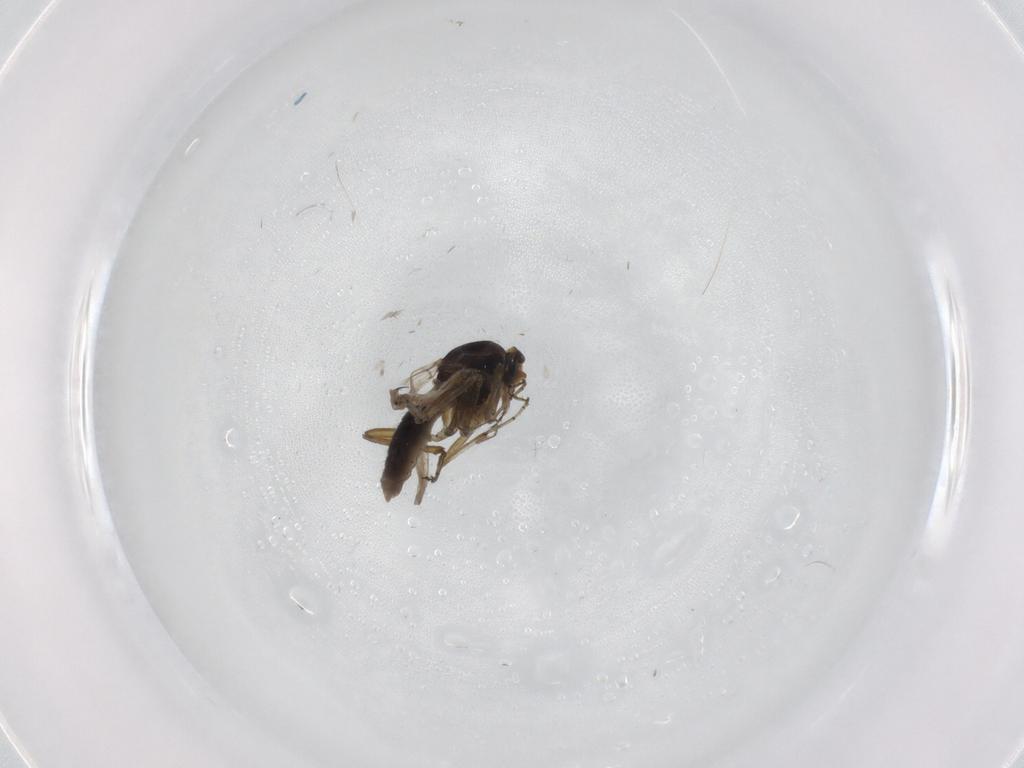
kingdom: Animalia
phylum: Arthropoda
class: Insecta
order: Diptera
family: Chironomidae
